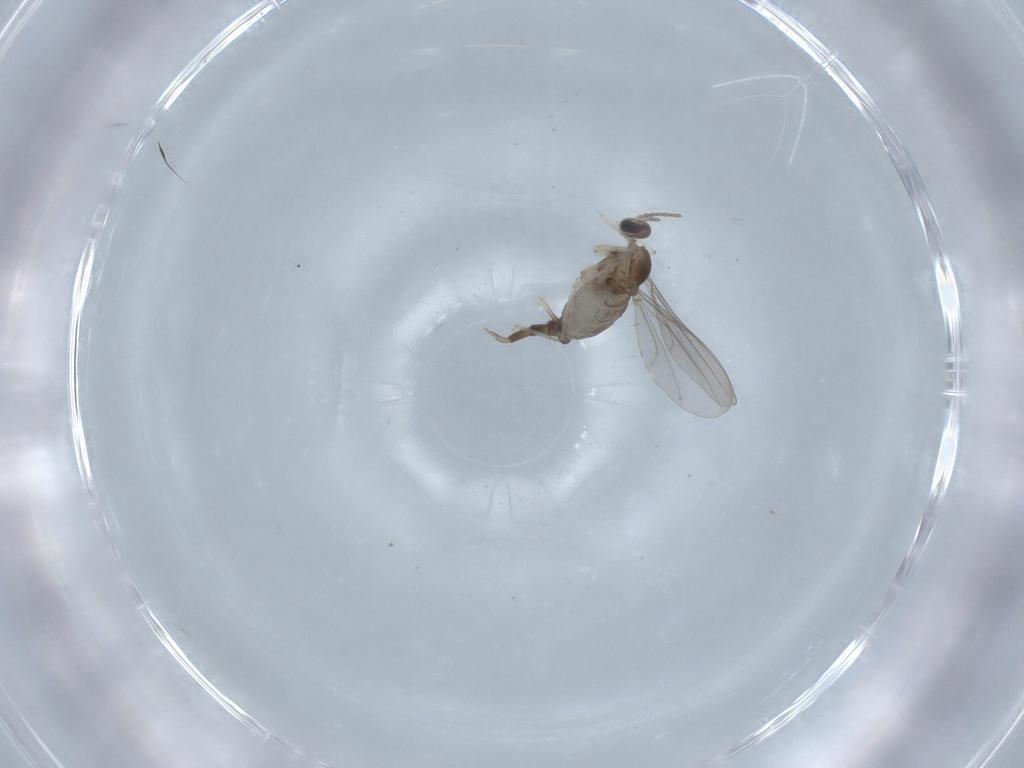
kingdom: Animalia
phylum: Arthropoda
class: Insecta
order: Diptera
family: Cecidomyiidae
